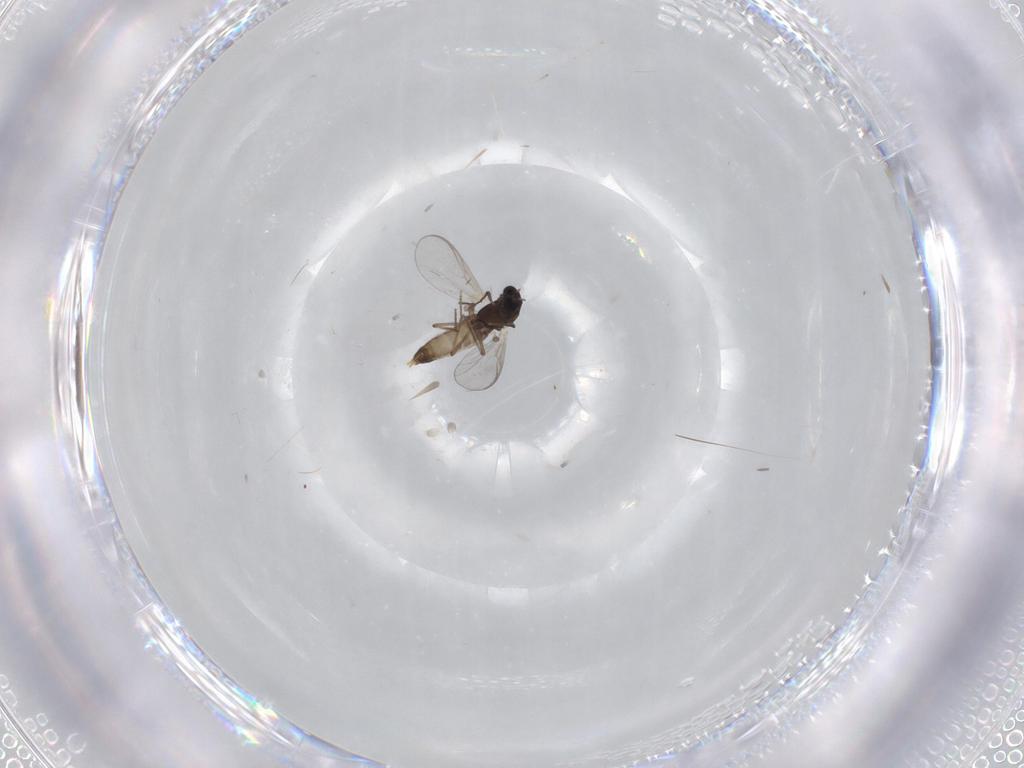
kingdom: Animalia
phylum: Arthropoda
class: Insecta
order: Diptera
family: Chironomidae
